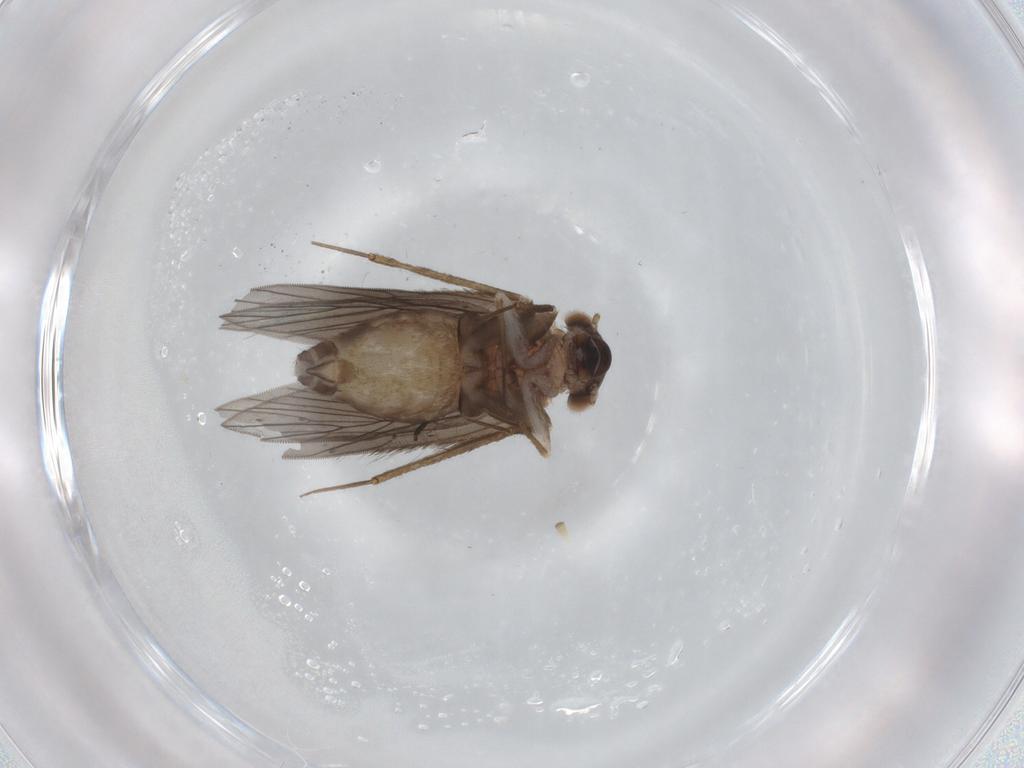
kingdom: Animalia
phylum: Arthropoda
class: Insecta
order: Psocodea
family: Lepidopsocidae
